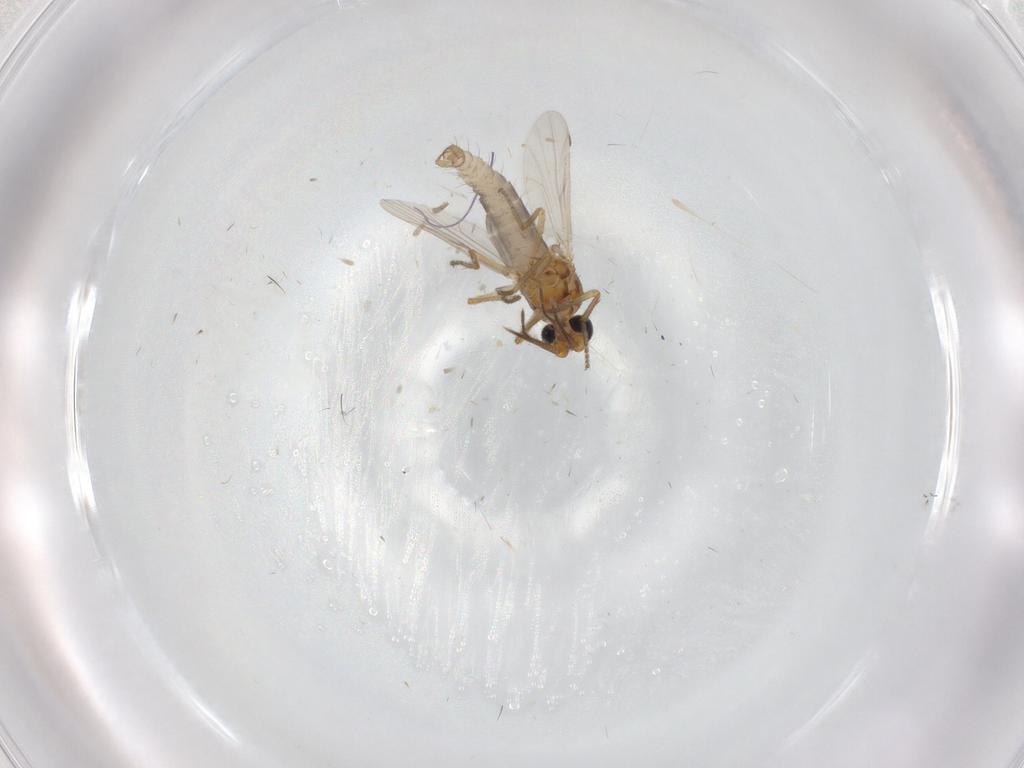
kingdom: Animalia
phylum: Arthropoda
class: Insecta
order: Diptera
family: Ceratopogonidae
